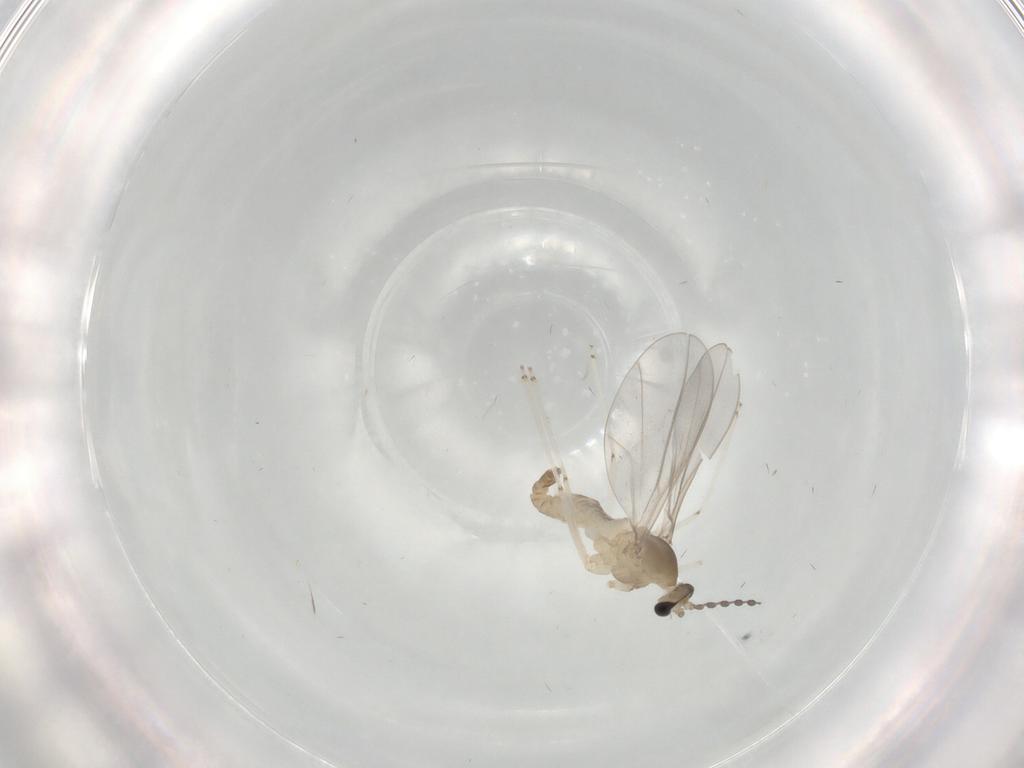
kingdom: Animalia
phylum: Arthropoda
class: Insecta
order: Diptera
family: Cecidomyiidae
